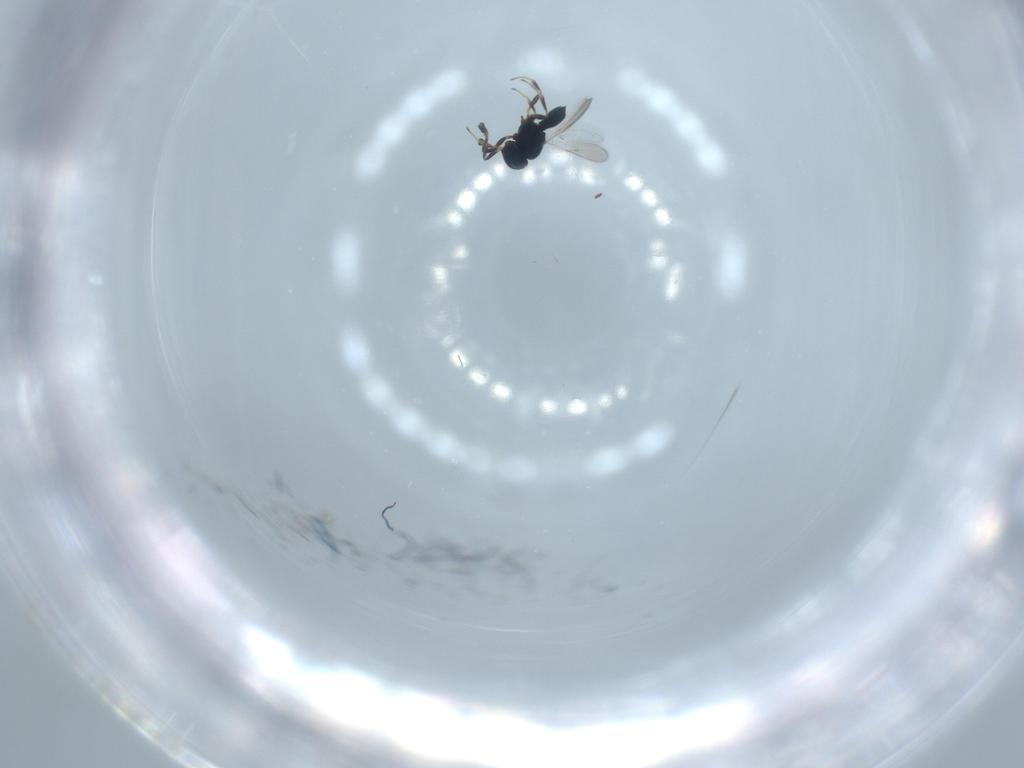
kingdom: Animalia
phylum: Arthropoda
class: Insecta
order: Hymenoptera
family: Scelionidae
